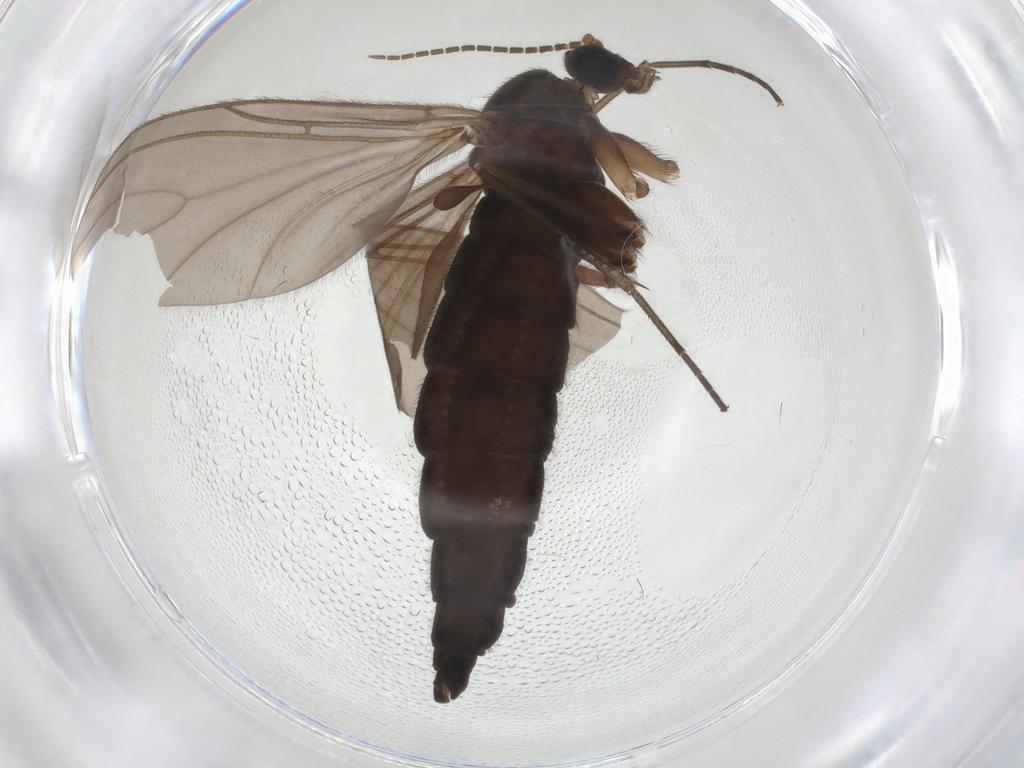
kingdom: Animalia
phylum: Arthropoda
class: Insecta
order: Diptera
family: Sciaridae
